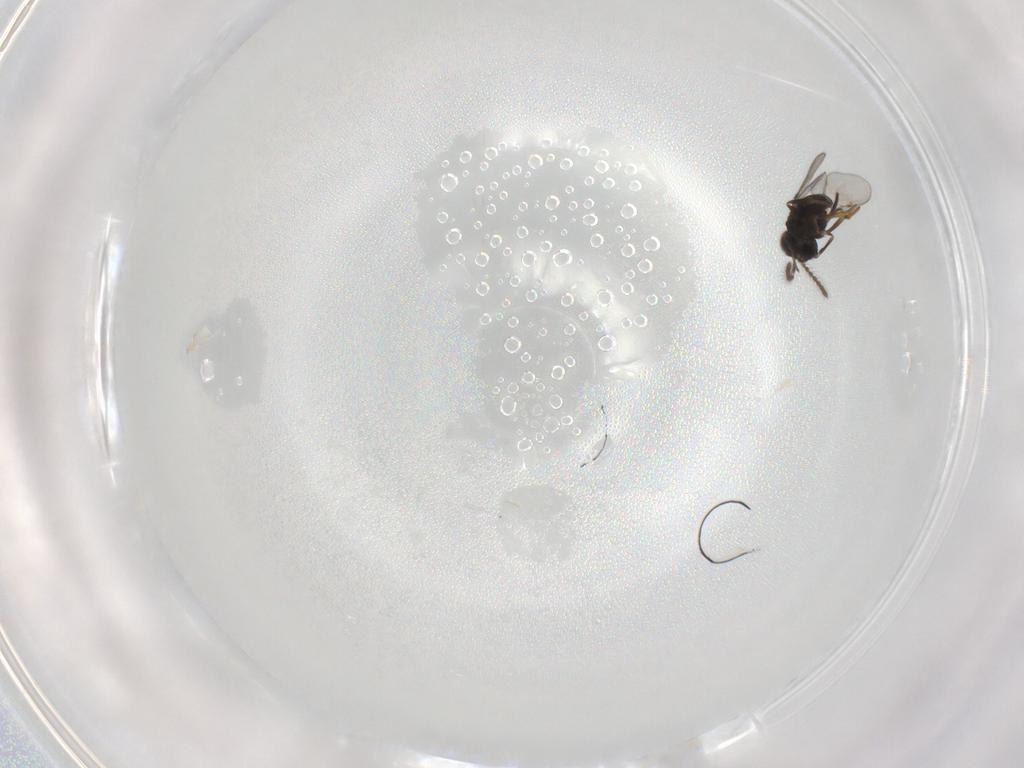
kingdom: Animalia
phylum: Arthropoda
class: Insecta
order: Hymenoptera
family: Encyrtidae
